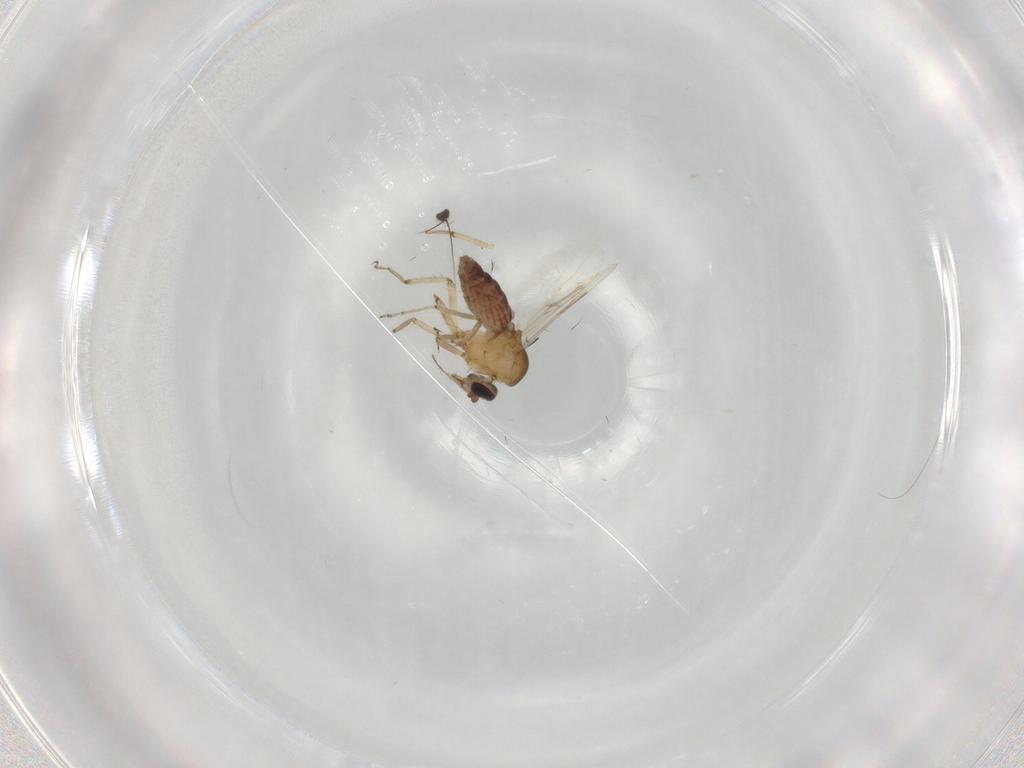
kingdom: Animalia
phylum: Arthropoda
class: Insecta
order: Diptera
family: Ceratopogonidae
